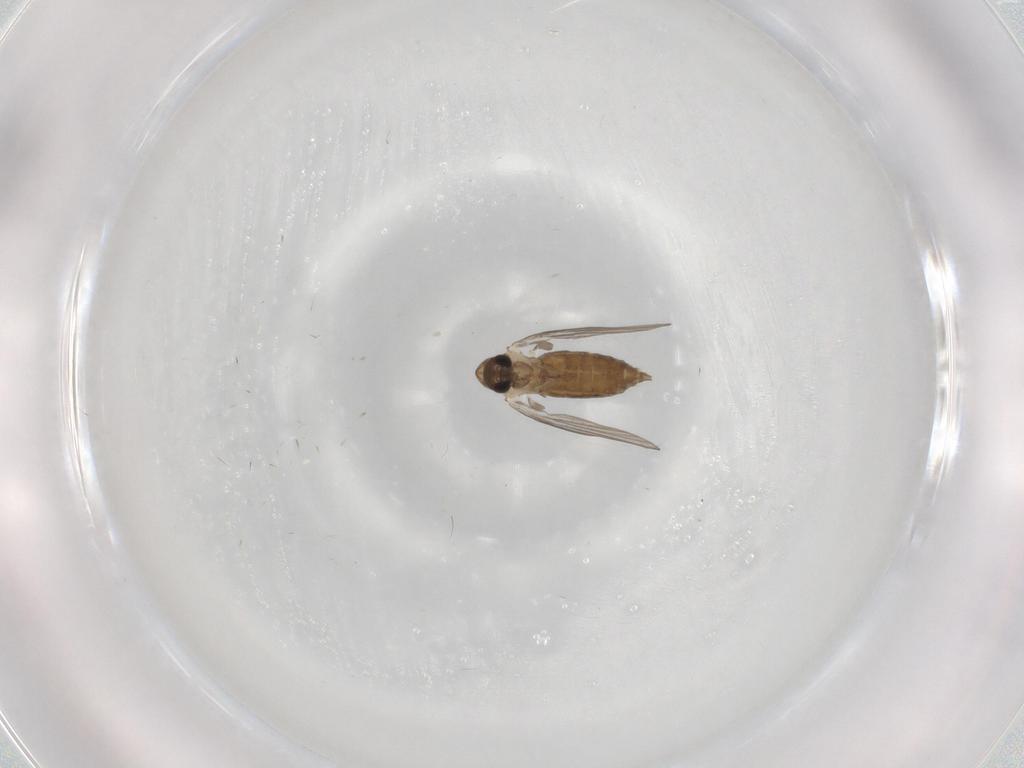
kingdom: Animalia
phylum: Arthropoda
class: Insecta
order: Diptera
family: Psychodidae
